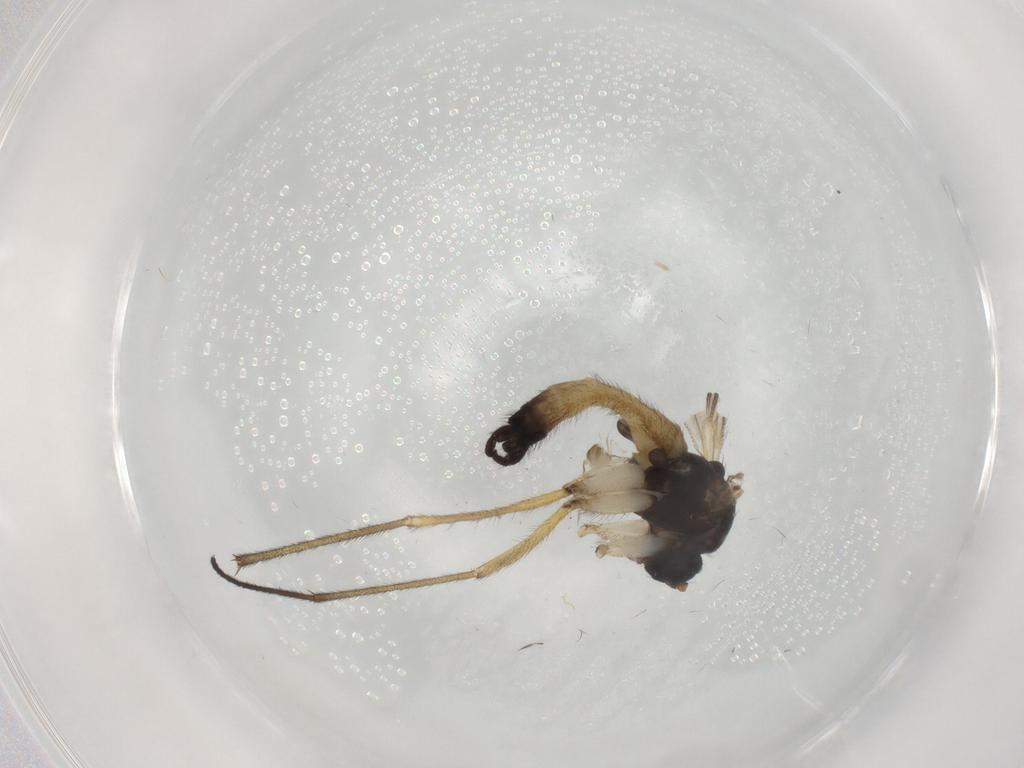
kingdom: Animalia
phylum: Arthropoda
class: Insecta
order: Diptera
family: Sciaridae
